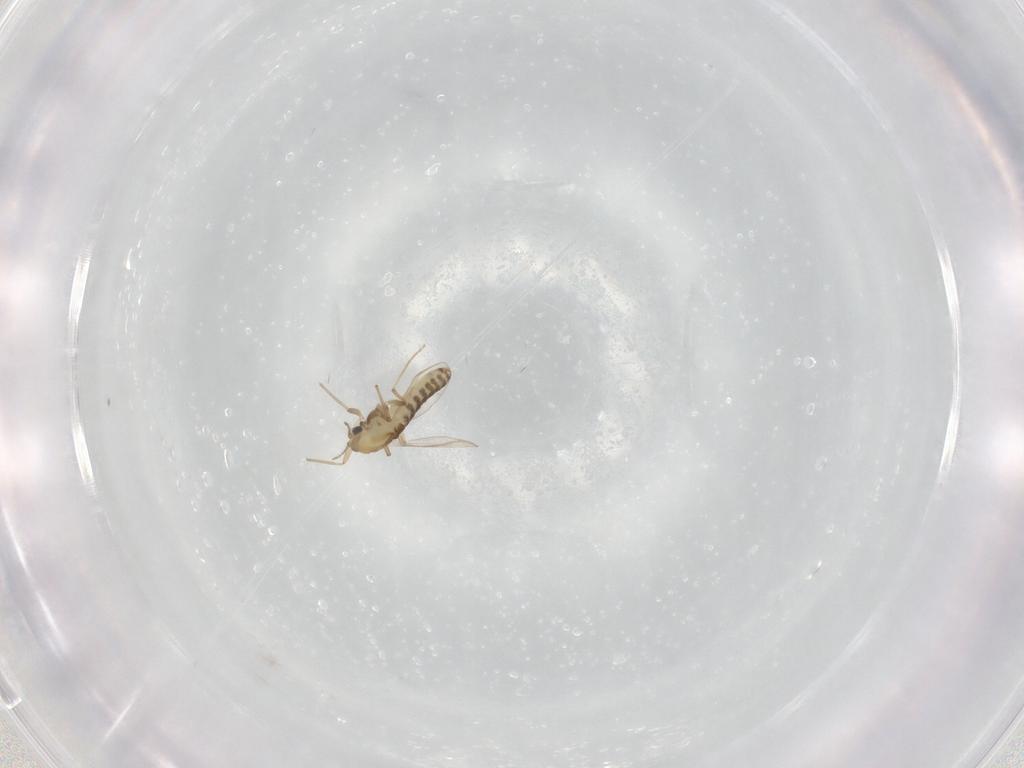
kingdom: Animalia
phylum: Arthropoda
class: Insecta
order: Diptera
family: Chironomidae
